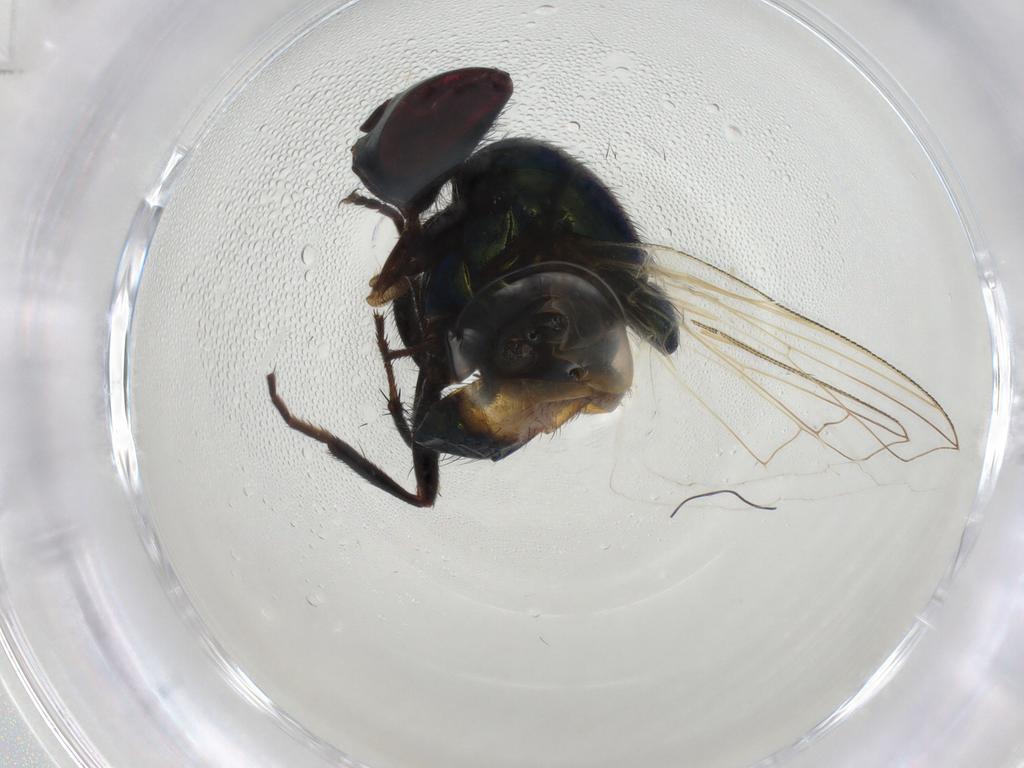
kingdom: Animalia
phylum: Arthropoda
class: Insecta
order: Diptera
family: Muscidae
